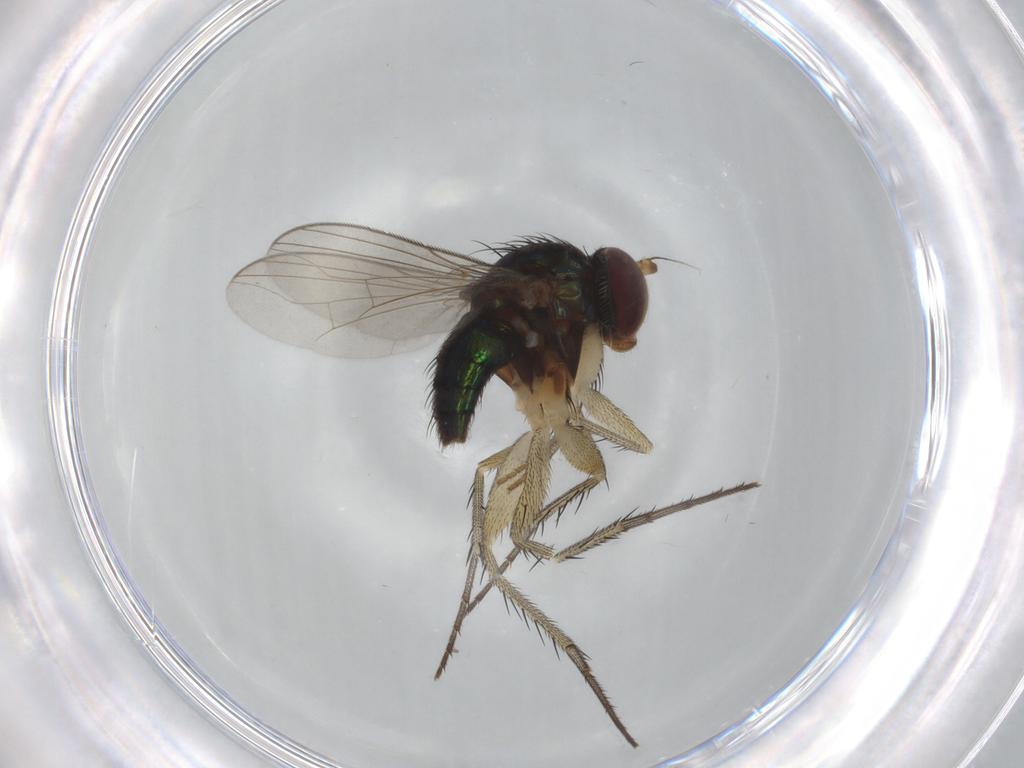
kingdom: Animalia
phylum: Arthropoda
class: Insecta
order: Diptera
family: Dolichopodidae
